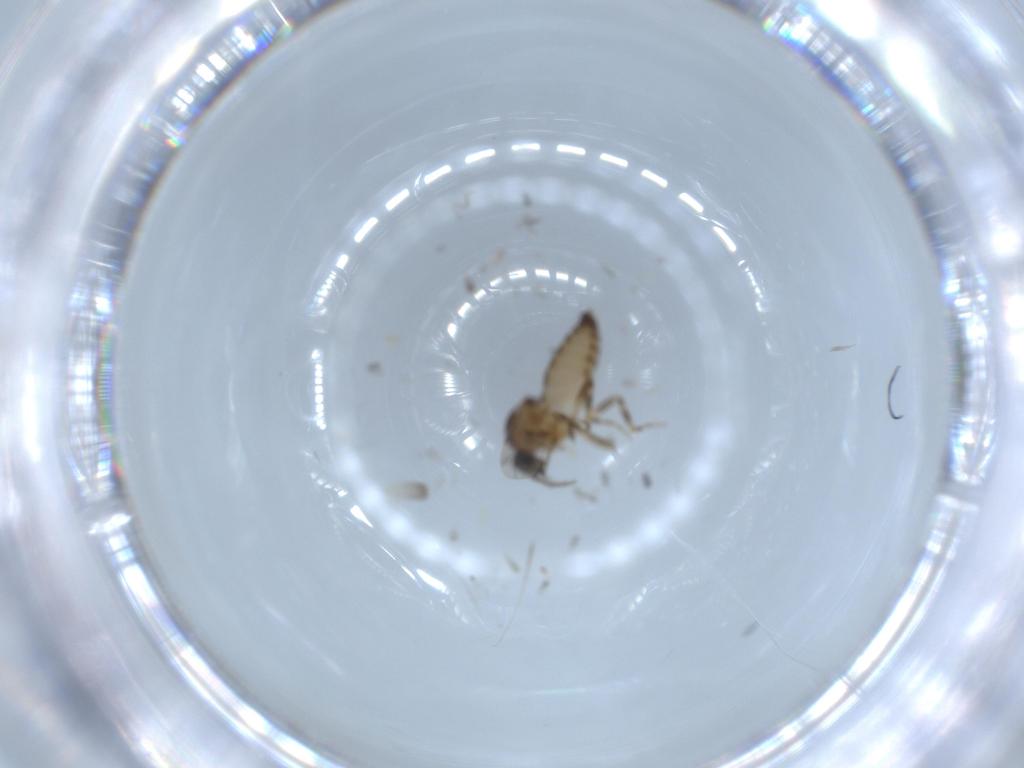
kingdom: Animalia
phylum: Arthropoda
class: Insecta
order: Diptera
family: Ceratopogonidae
